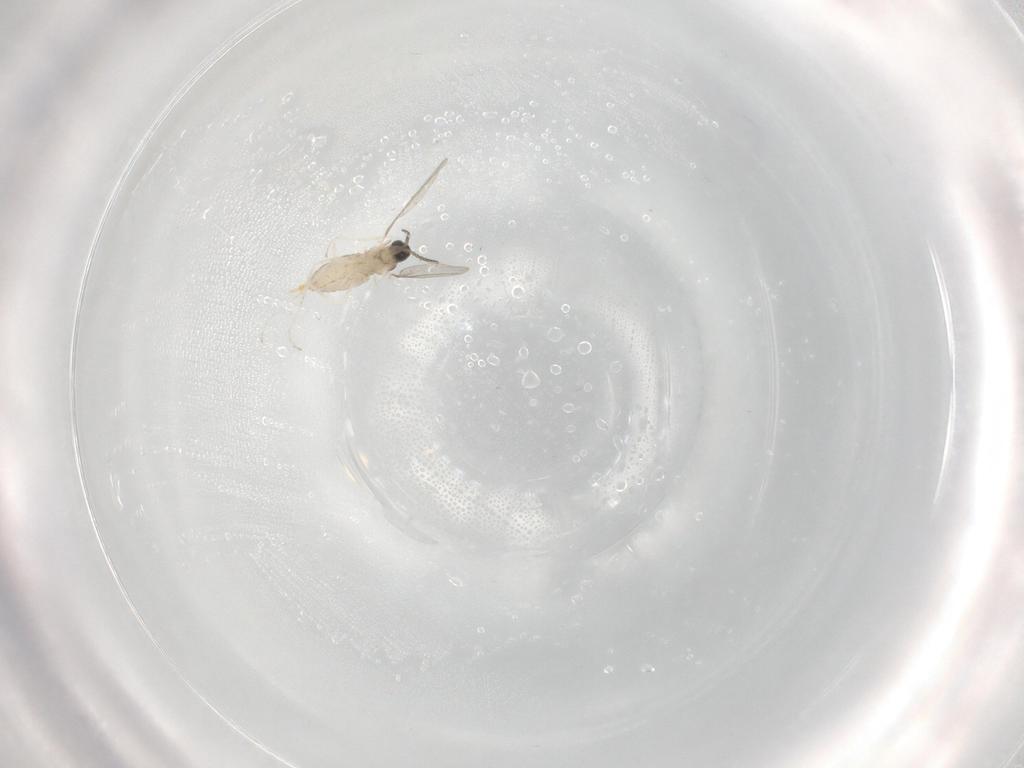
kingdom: Animalia
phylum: Arthropoda
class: Insecta
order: Diptera
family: Cecidomyiidae
